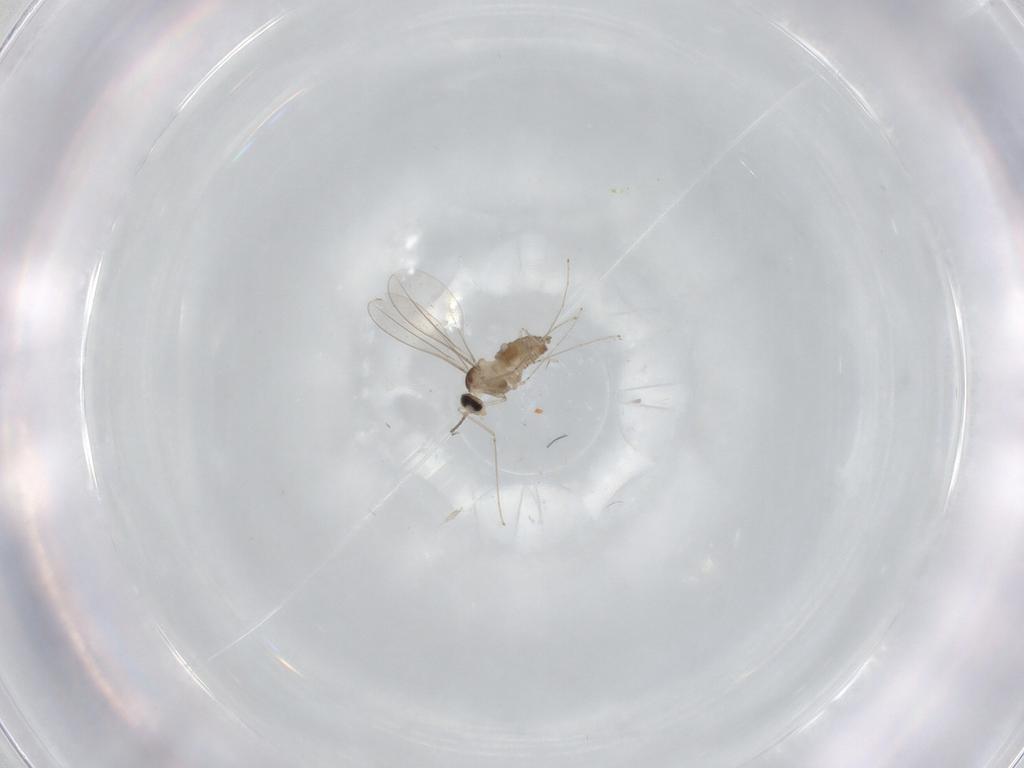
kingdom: Animalia
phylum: Arthropoda
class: Insecta
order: Diptera
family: Cecidomyiidae
